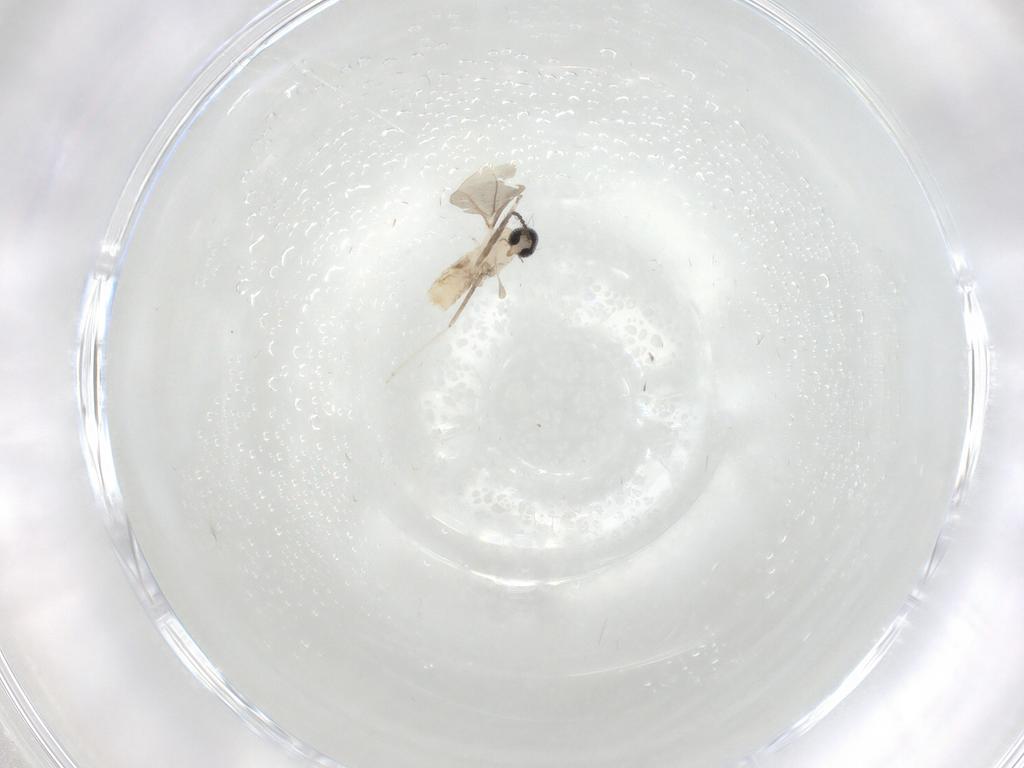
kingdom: Animalia
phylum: Arthropoda
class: Insecta
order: Diptera
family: Cecidomyiidae
